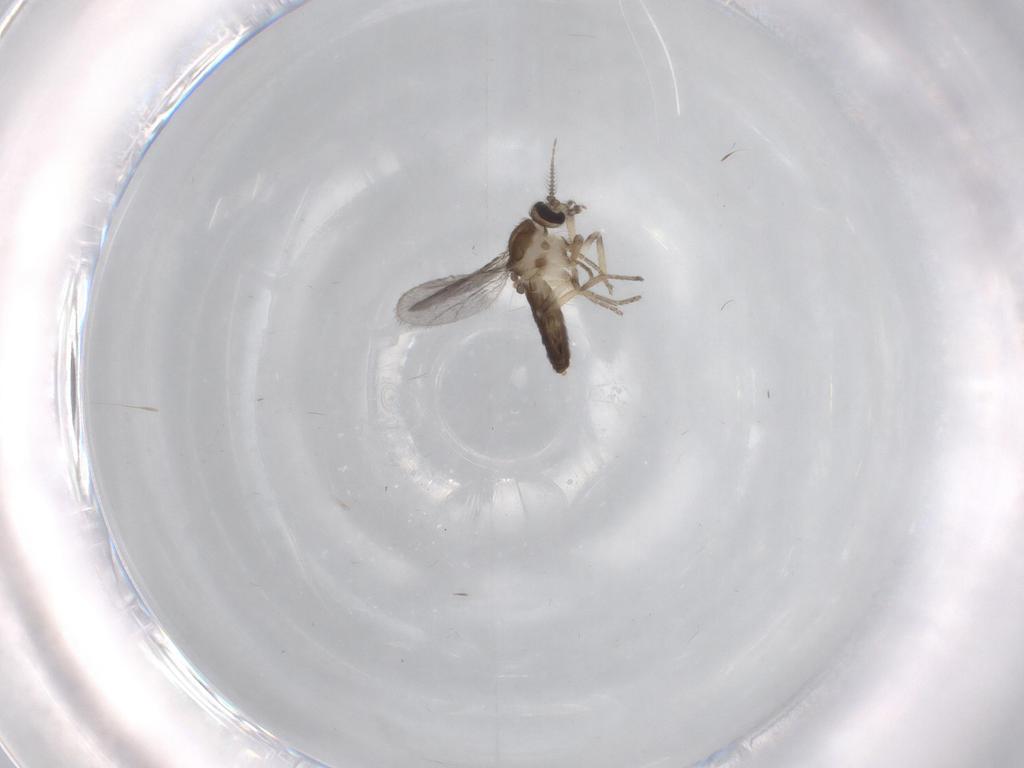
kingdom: Animalia
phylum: Arthropoda
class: Insecta
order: Diptera
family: Ceratopogonidae
